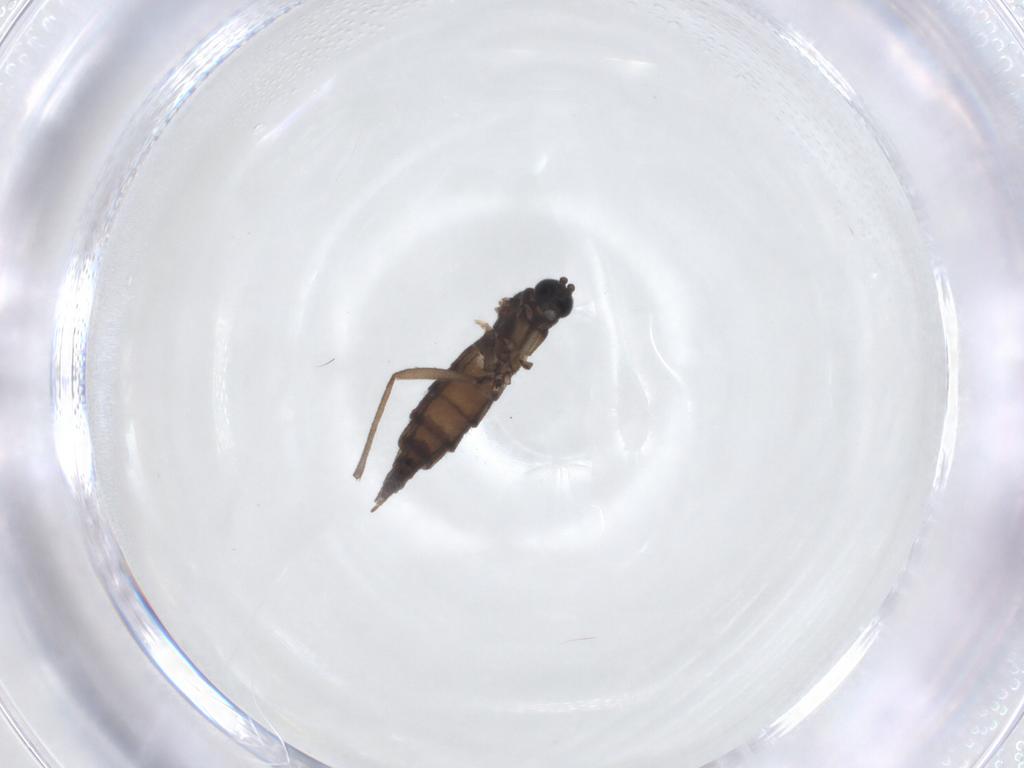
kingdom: Animalia
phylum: Arthropoda
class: Insecta
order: Diptera
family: Sciaridae
